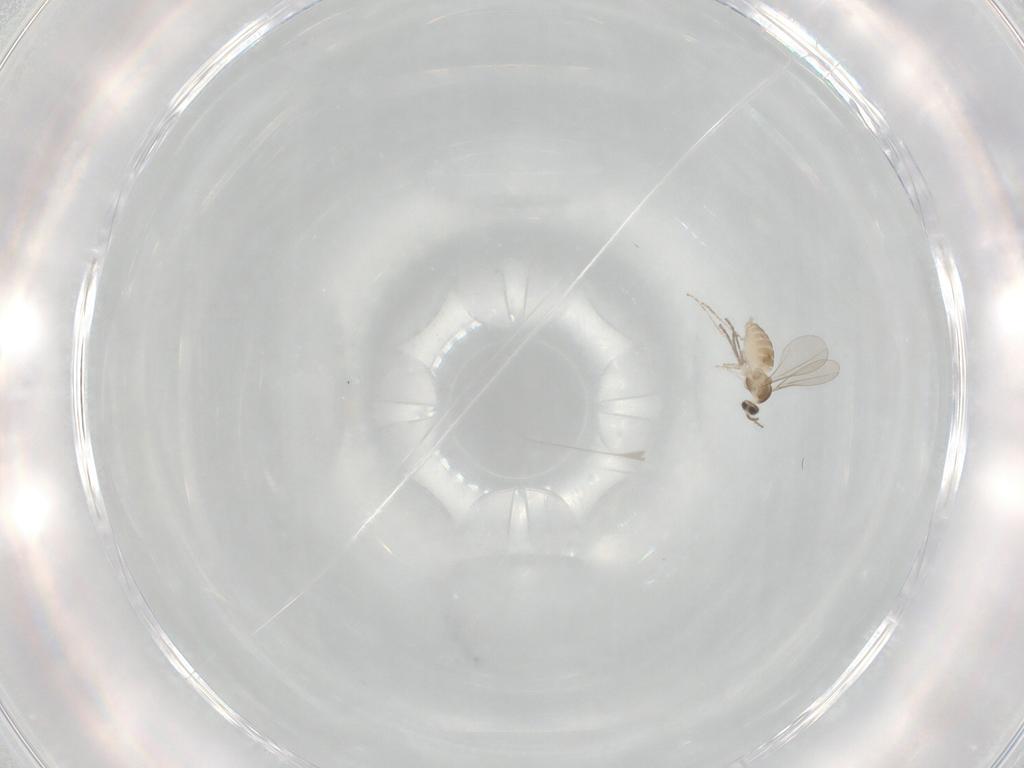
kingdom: Animalia
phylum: Arthropoda
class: Insecta
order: Diptera
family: Cecidomyiidae
